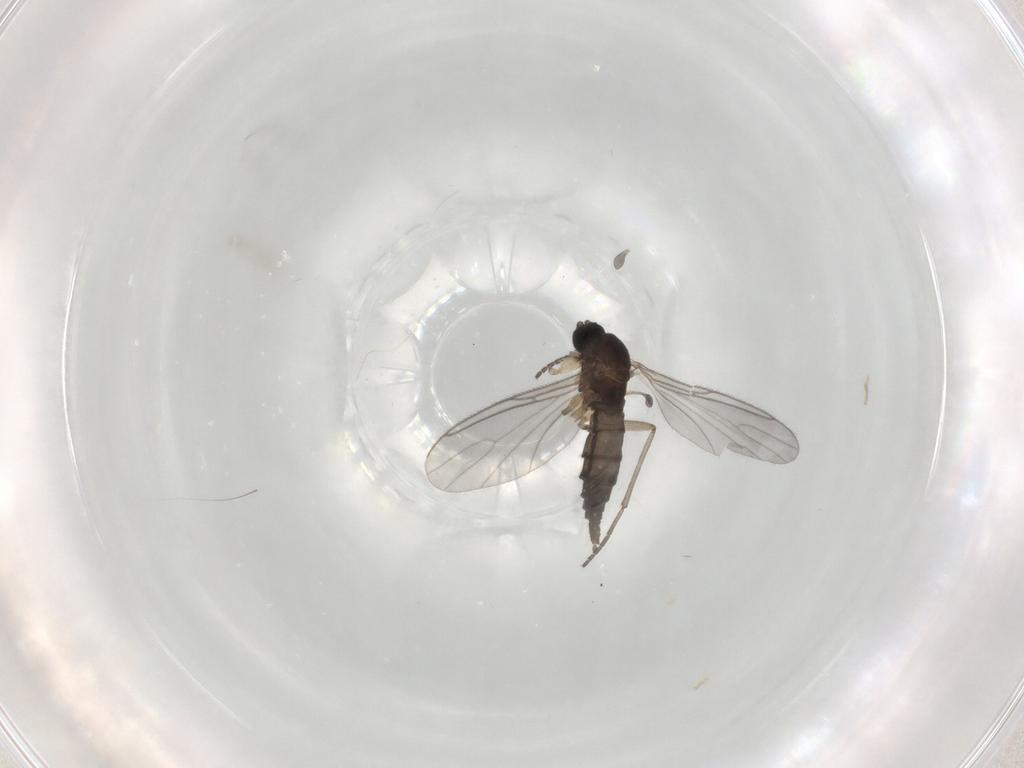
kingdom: Animalia
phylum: Arthropoda
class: Insecta
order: Diptera
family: Sciaridae
